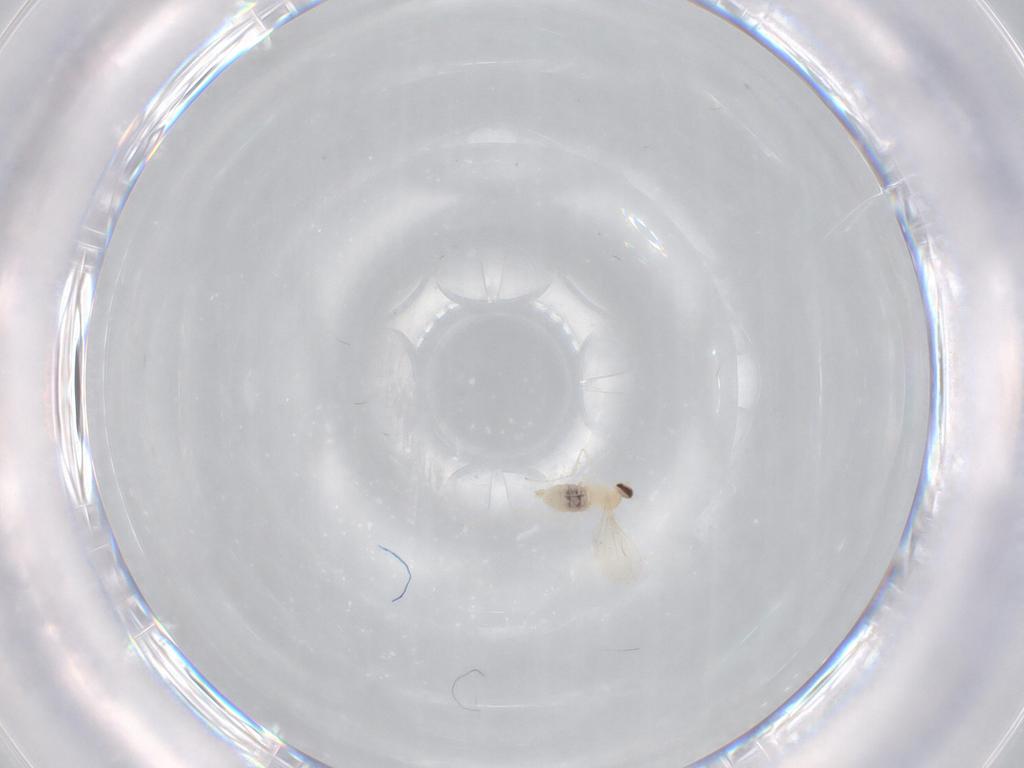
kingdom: Animalia
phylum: Arthropoda
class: Insecta
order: Diptera
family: Cecidomyiidae
